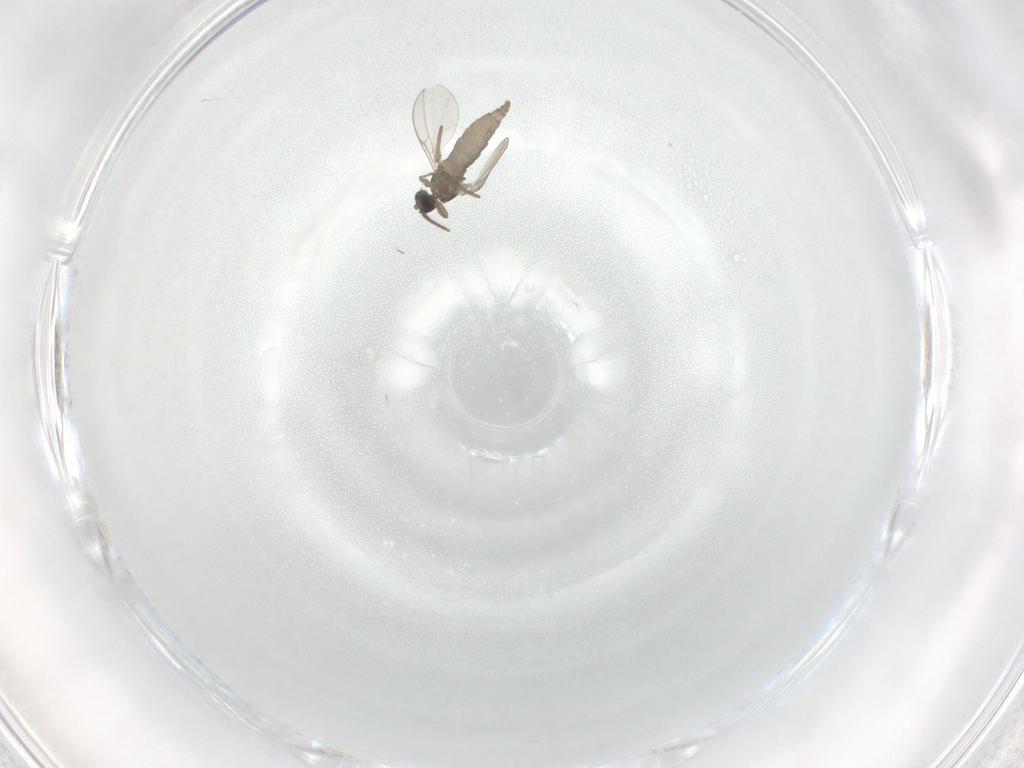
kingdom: Animalia
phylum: Arthropoda
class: Insecta
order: Diptera
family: Cecidomyiidae
